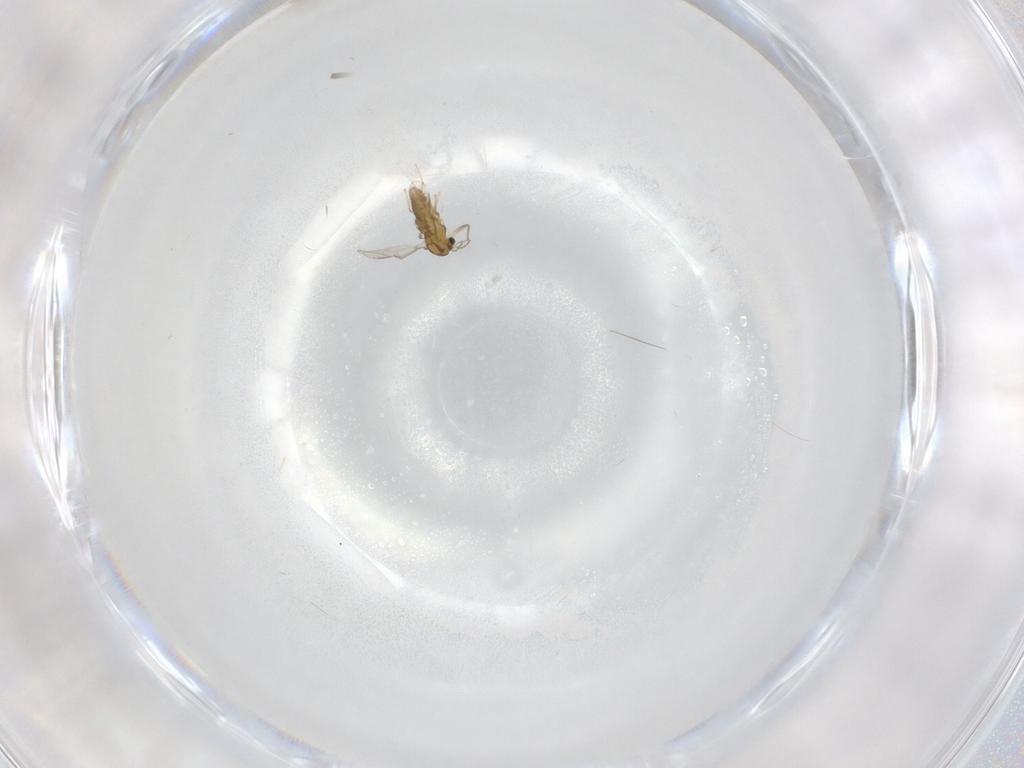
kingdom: Animalia
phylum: Arthropoda
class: Insecta
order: Diptera
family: Chironomidae
